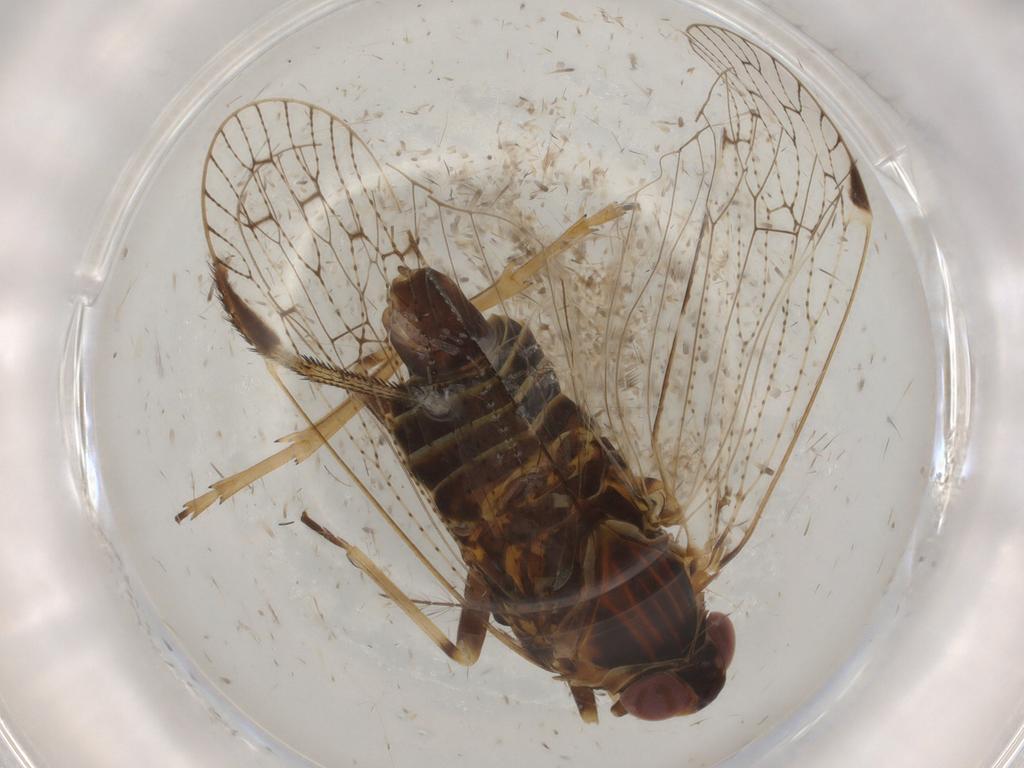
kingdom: Animalia
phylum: Arthropoda
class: Insecta
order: Hemiptera
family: Cixiidae
